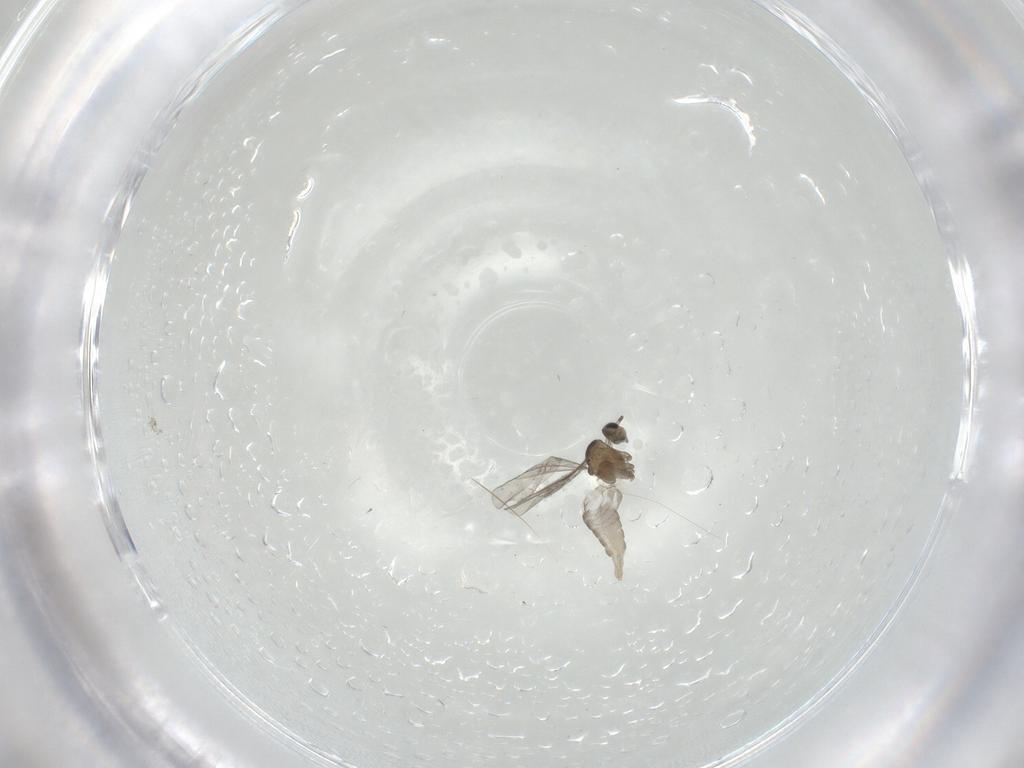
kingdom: Animalia
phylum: Arthropoda
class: Insecta
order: Diptera
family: Cecidomyiidae
